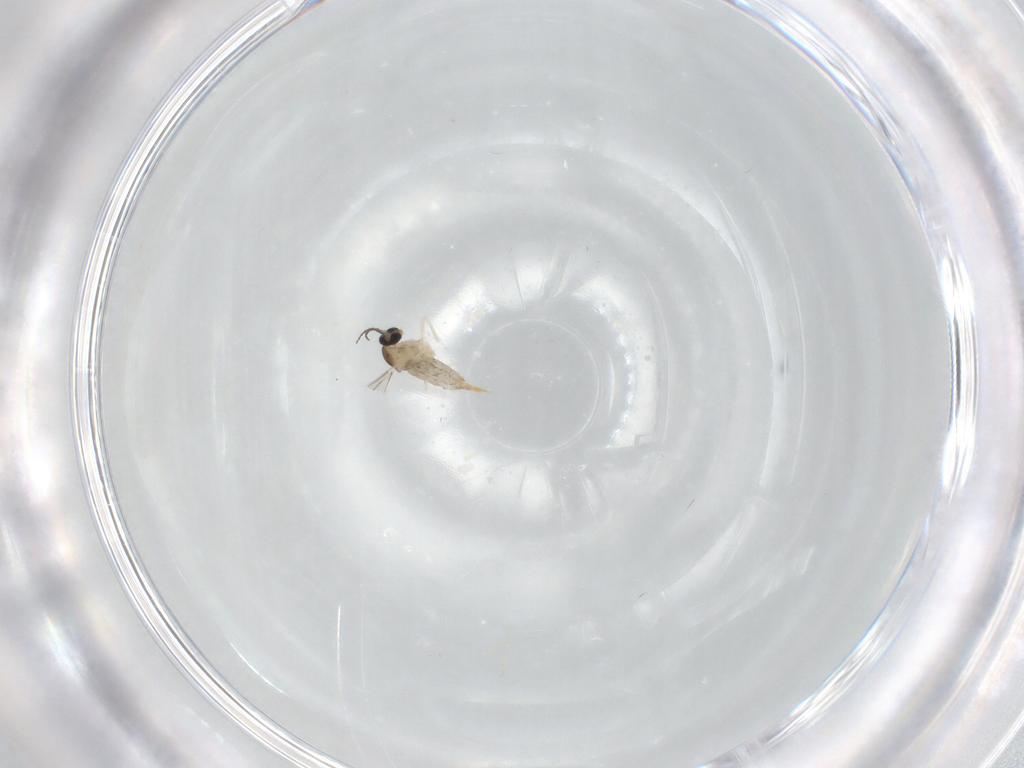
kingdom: Animalia
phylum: Arthropoda
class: Insecta
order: Diptera
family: Cecidomyiidae
